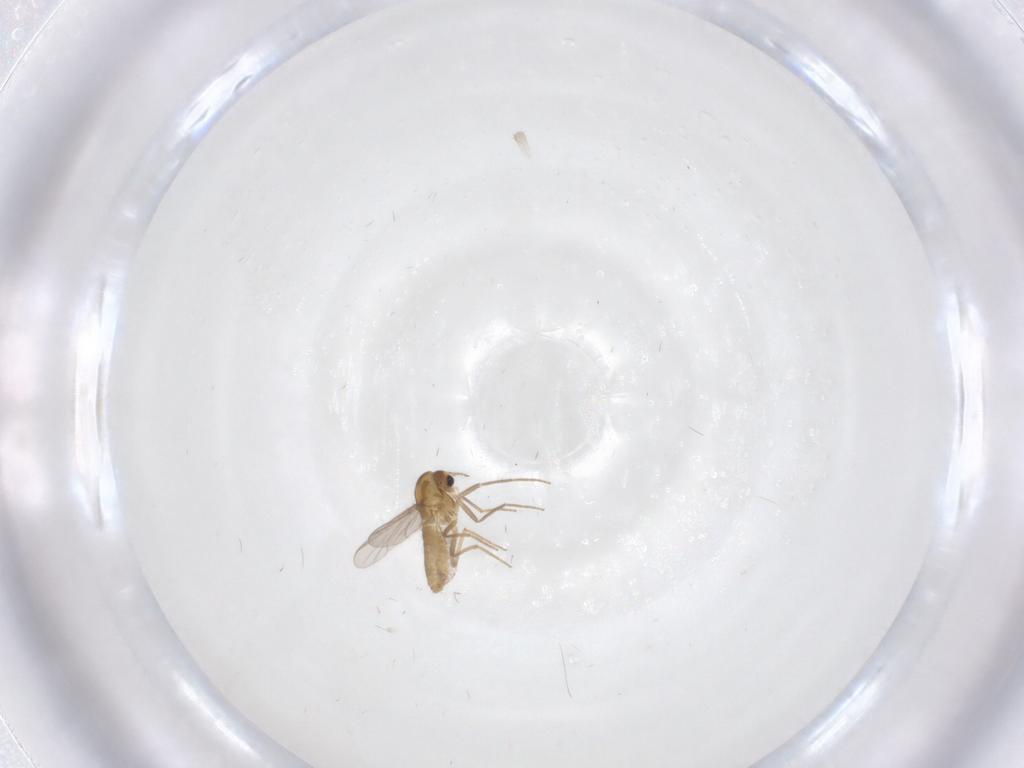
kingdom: Animalia
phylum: Arthropoda
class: Insecta
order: Diptera
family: Chironomidae
